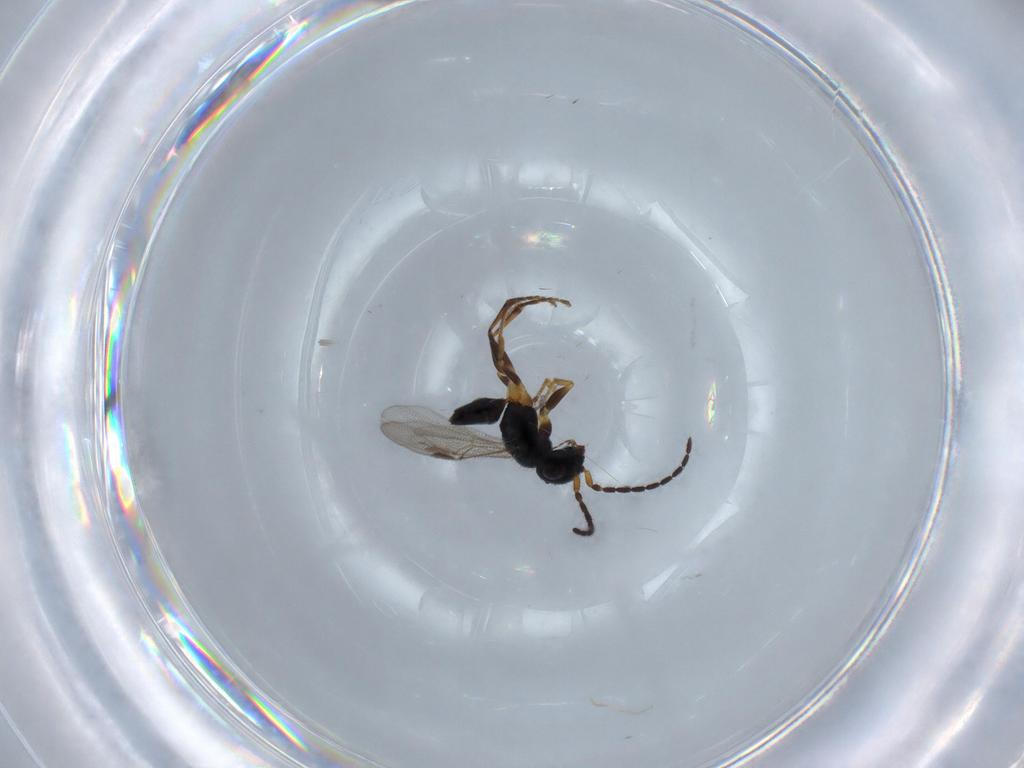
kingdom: Animalia
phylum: Arthropoda
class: Insecta
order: Hymenoptera
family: Dryinidae
